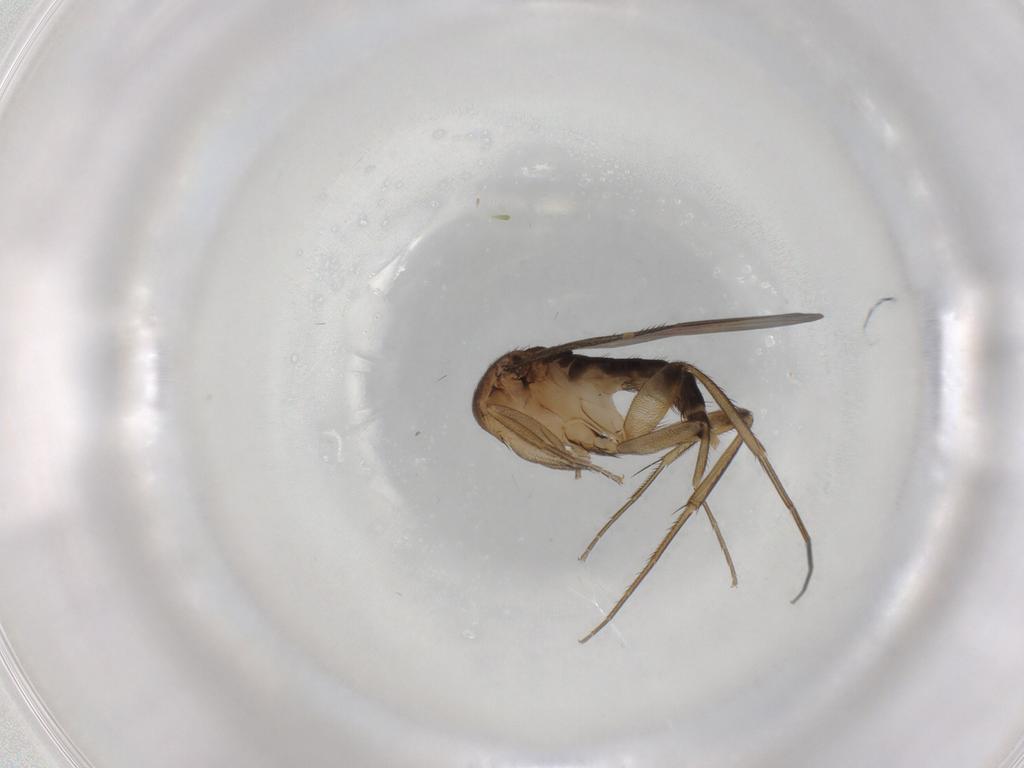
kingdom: Animalia
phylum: Arthropoda
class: Insecta
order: Diptera
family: Phoridae
